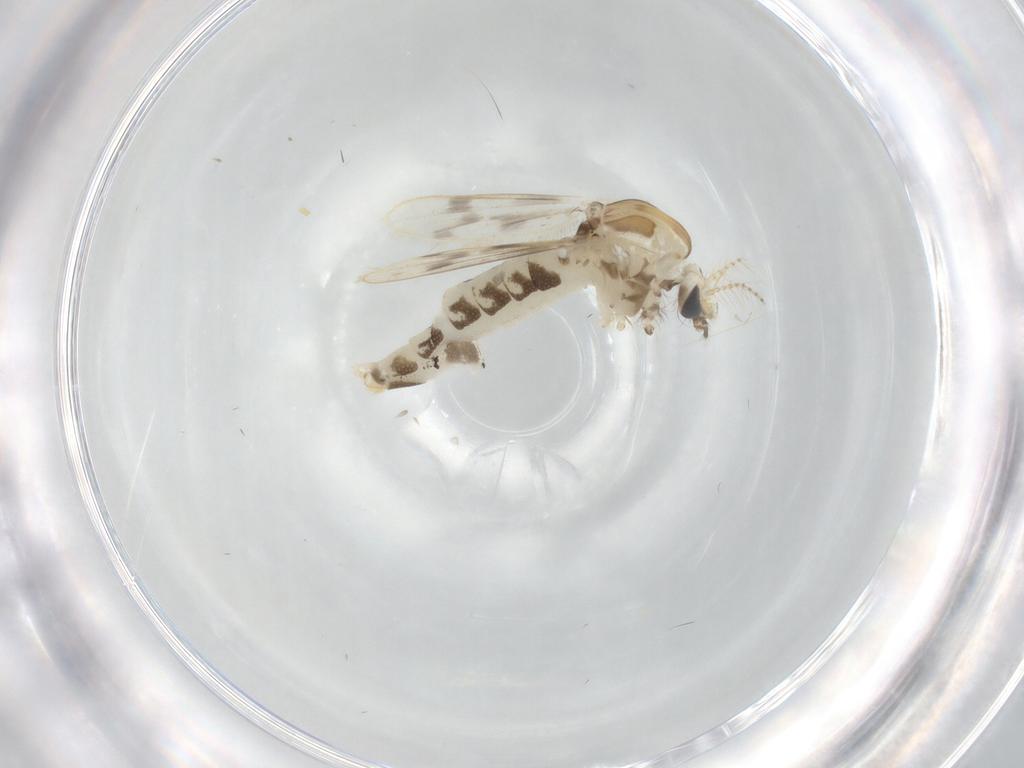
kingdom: Animalia
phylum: Arthropoda
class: Insecta
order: Diptera
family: Corethrellidae
